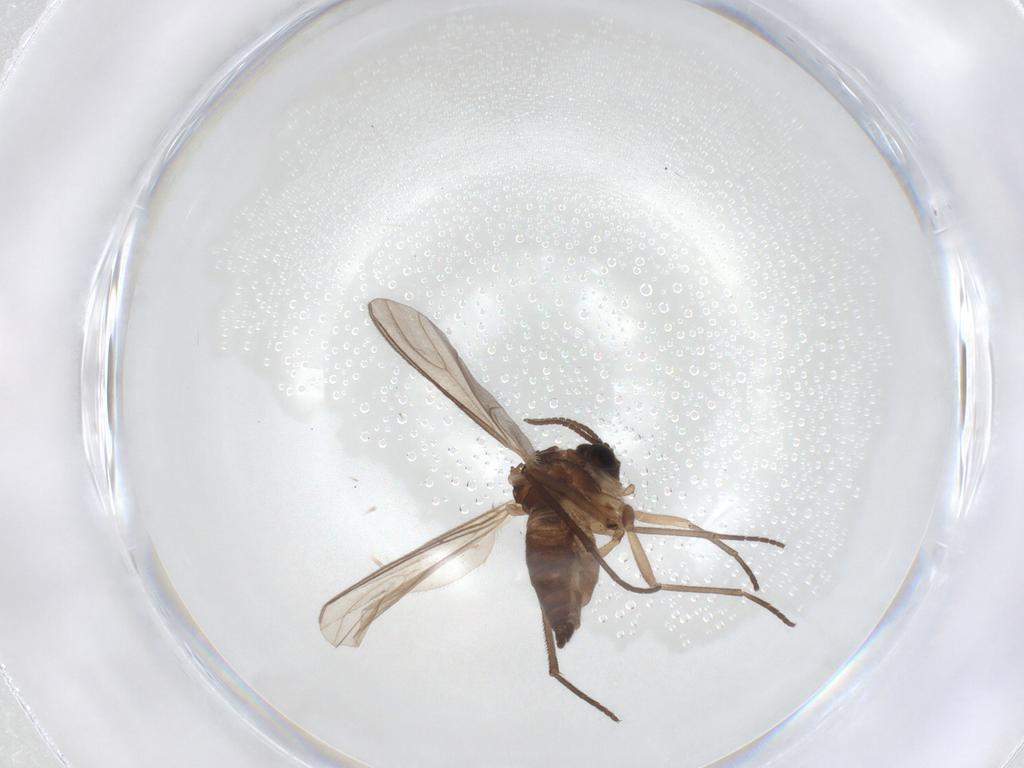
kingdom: Animalia
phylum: Arthropoda
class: Insecta
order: Diptera
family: Sciaridae
